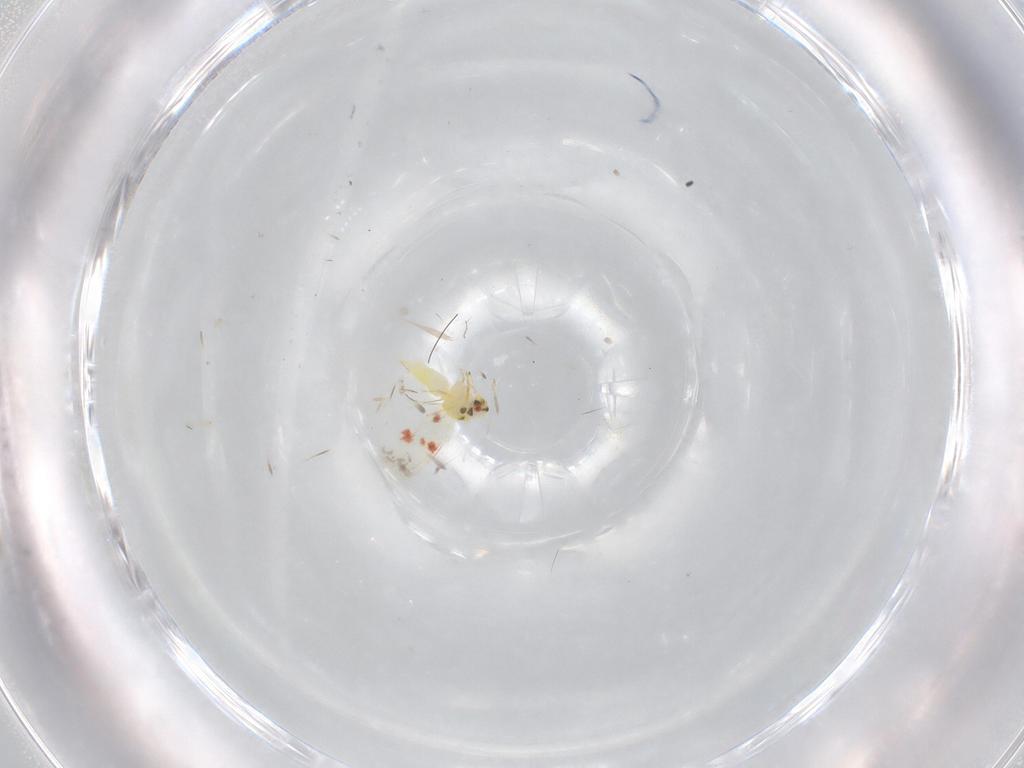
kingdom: Animalia
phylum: Arthropoda
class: Insecta
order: Hemiptera
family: Aleyrodidae
